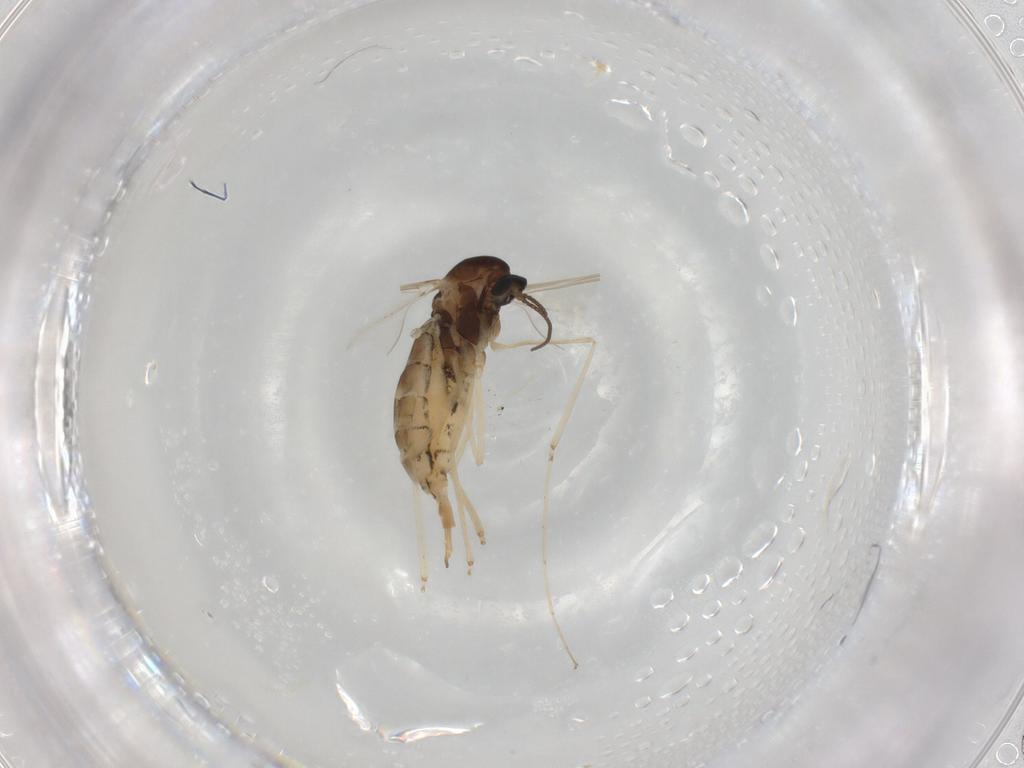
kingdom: Animalia
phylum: Arthropoda
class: Insecta
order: Diptera
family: Cecidomyiidae
